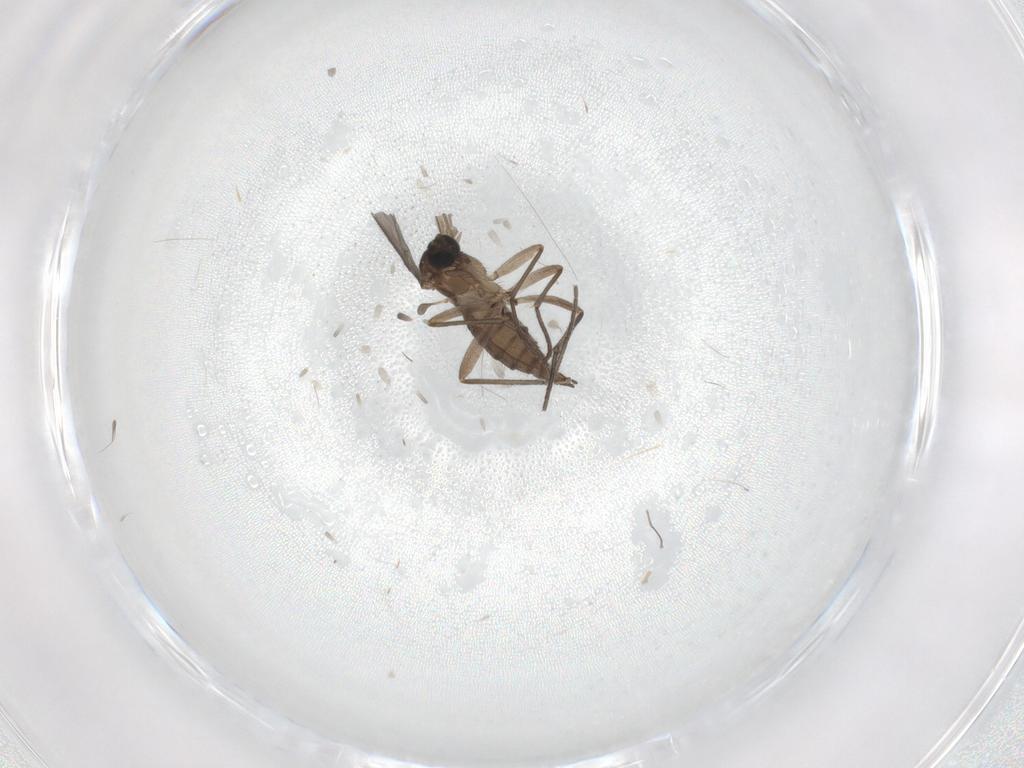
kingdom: Animalia
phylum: Arthropoda
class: Insecta
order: Diptera
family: Sciaridae
